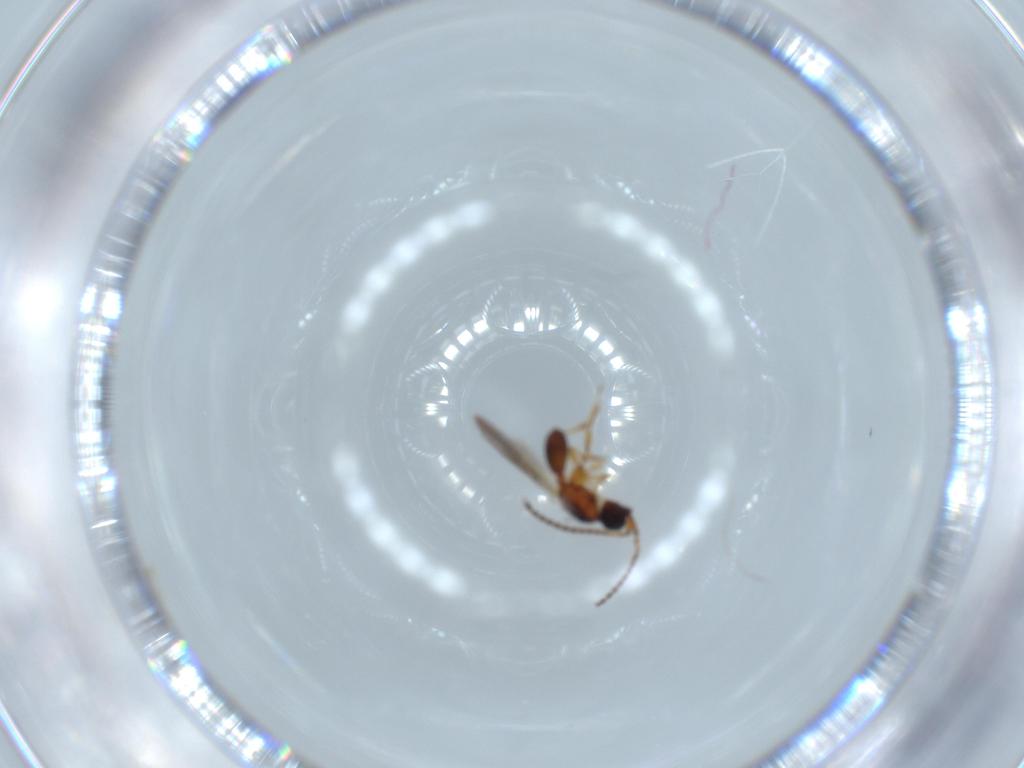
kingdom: Animalia
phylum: Arthropoda
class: Insecta
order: Hymenoptera
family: Diapriidae
